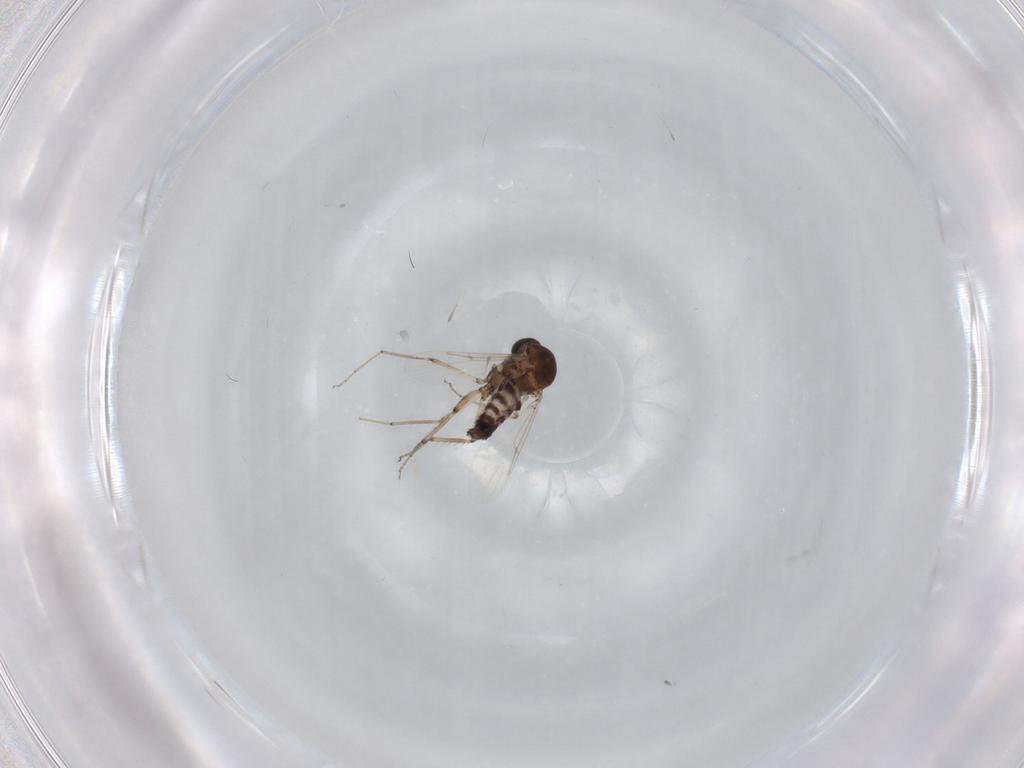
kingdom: Animalia
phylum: Arthropoda
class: Insecta
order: Diptera
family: Ceratopogonidae
